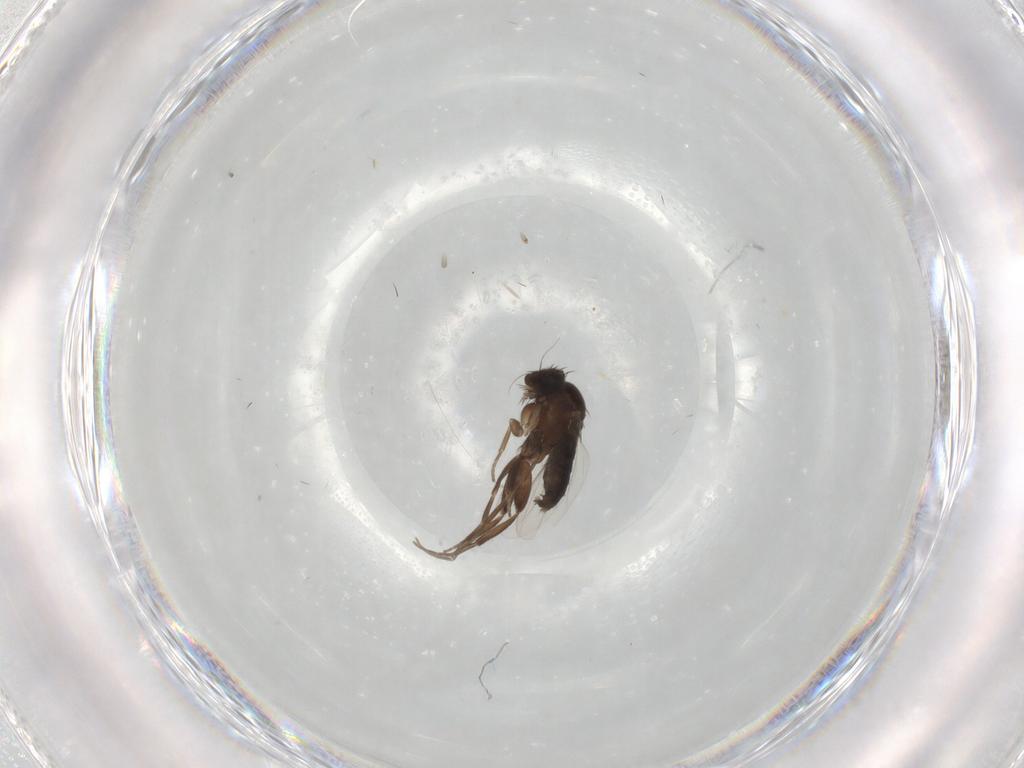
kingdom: Animalia
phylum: Arthropoda
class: Insecta
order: Diptera
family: Phoridae
